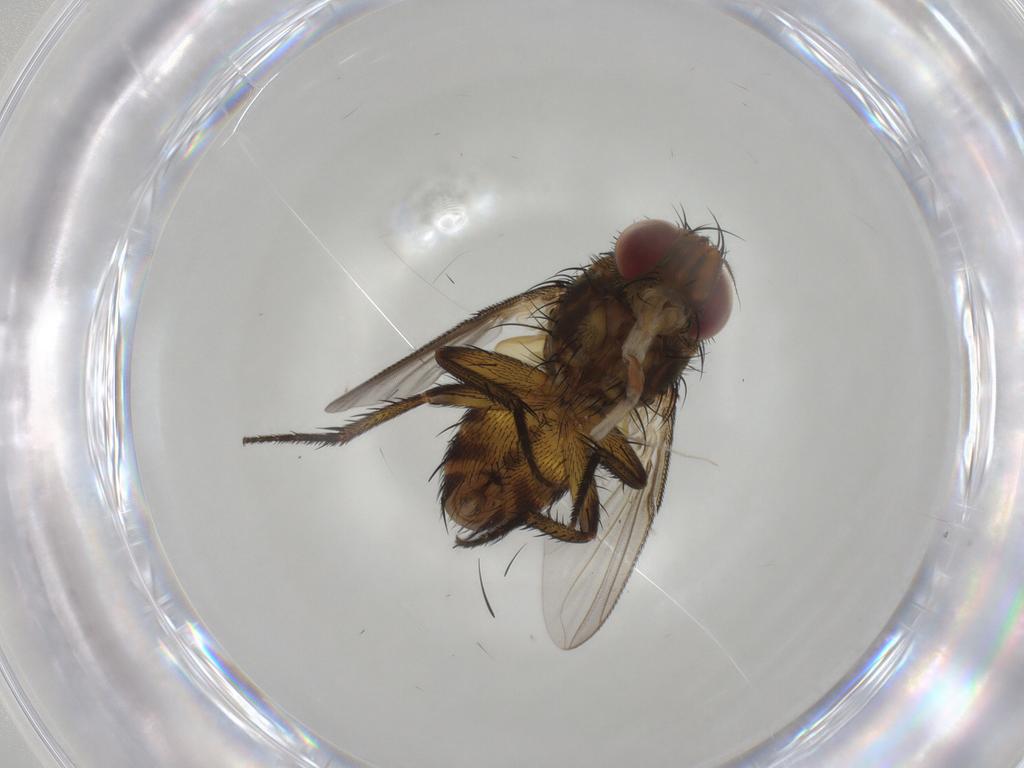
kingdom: Animalia
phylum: Arthropoda
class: Insecta
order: Diptera
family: Tachinidae
